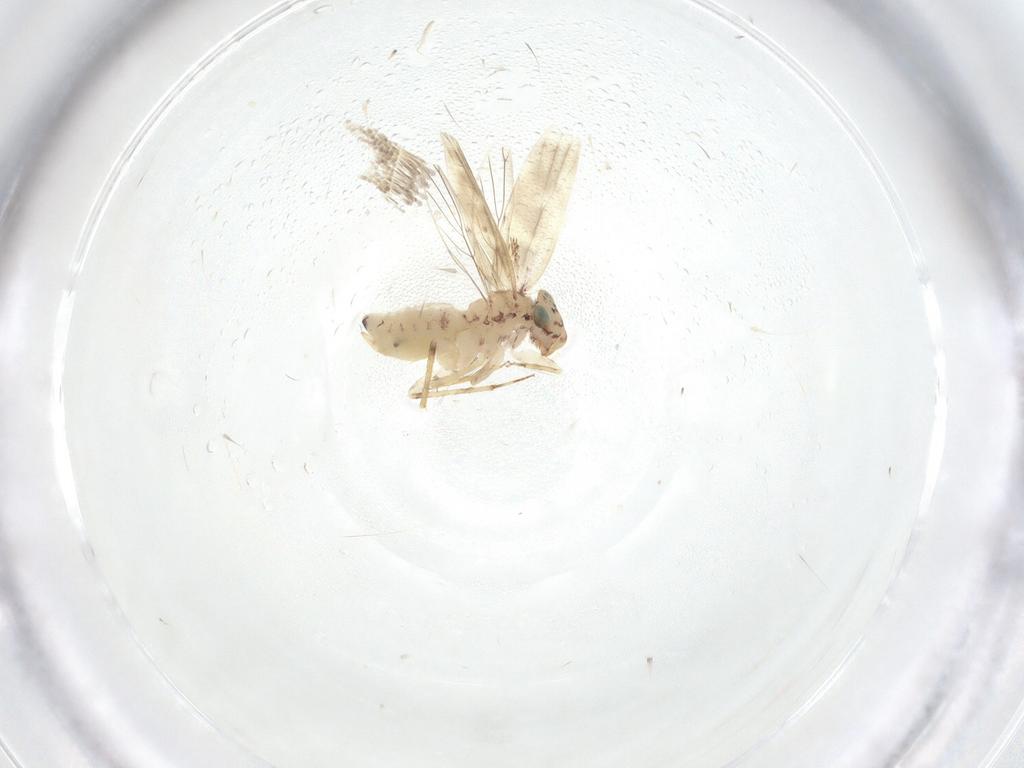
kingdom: Animalia
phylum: Arthropoda
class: Insecta
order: Psocodea
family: Lepidopsocidae
